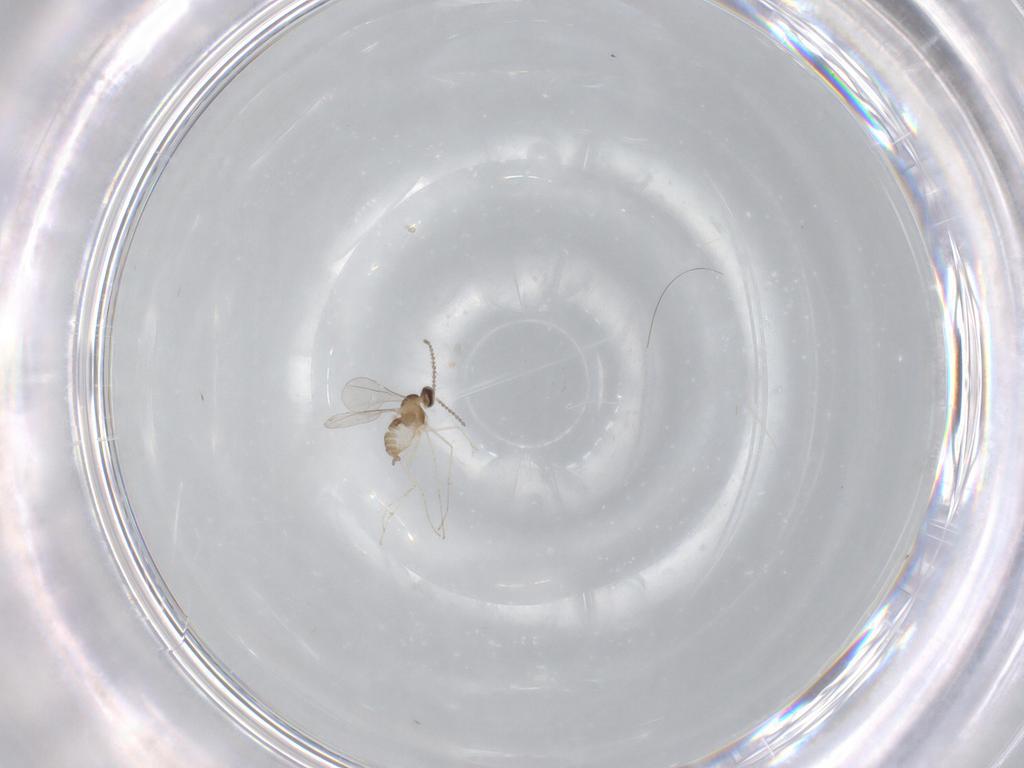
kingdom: Animalia
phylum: Arthropoda
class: Insecta
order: Diptera
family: Cecidomyiidae
